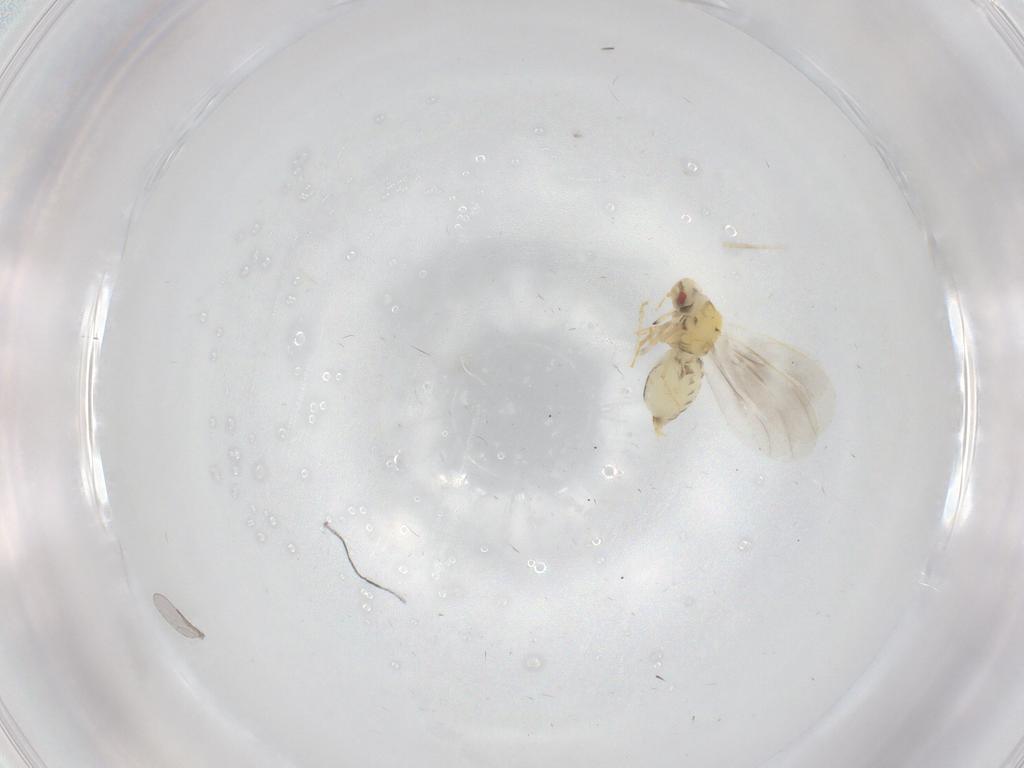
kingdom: Animalia
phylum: Arthropoda
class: Insecta
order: Hemiptera
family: Aleyrodidae
